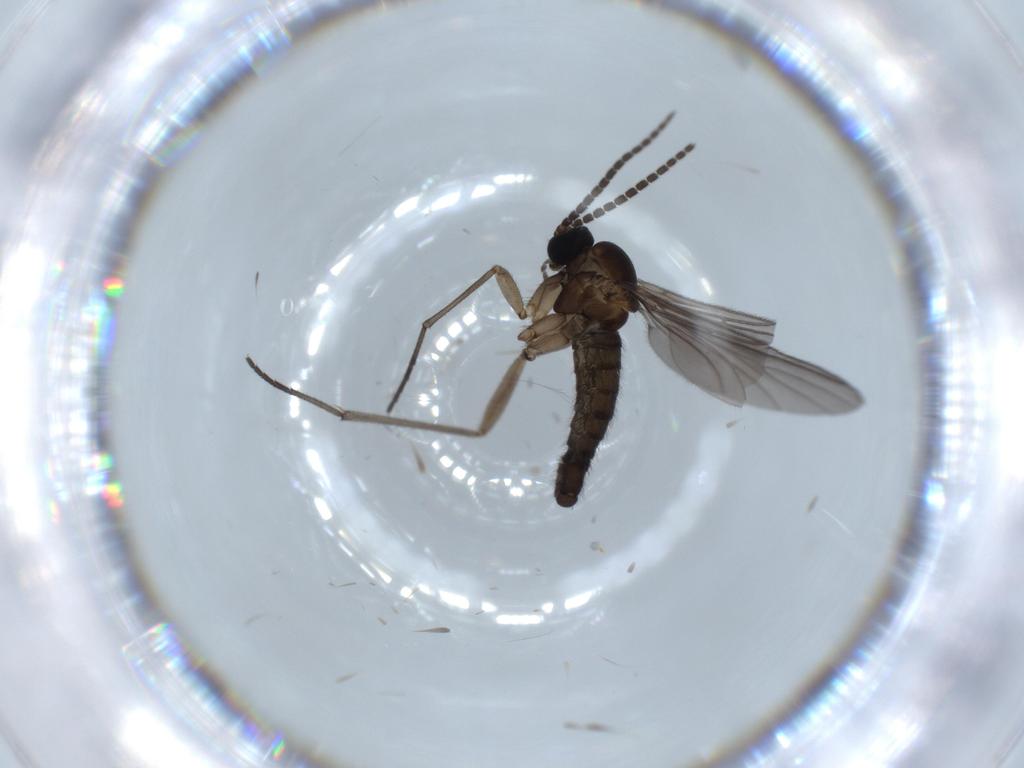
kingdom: Animalia
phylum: Arthropoda
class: Insecta
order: Diptera
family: Sciaridae
